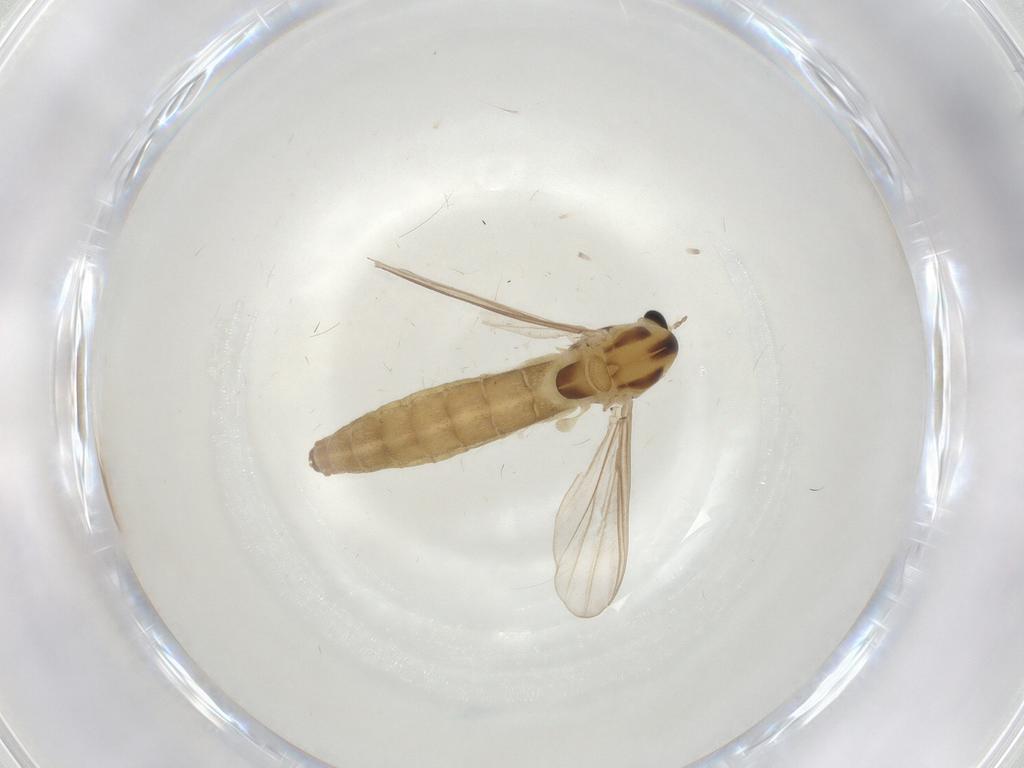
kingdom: Animalia
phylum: Arthropoda
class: Insecta
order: Diptera
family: Chironomidae
